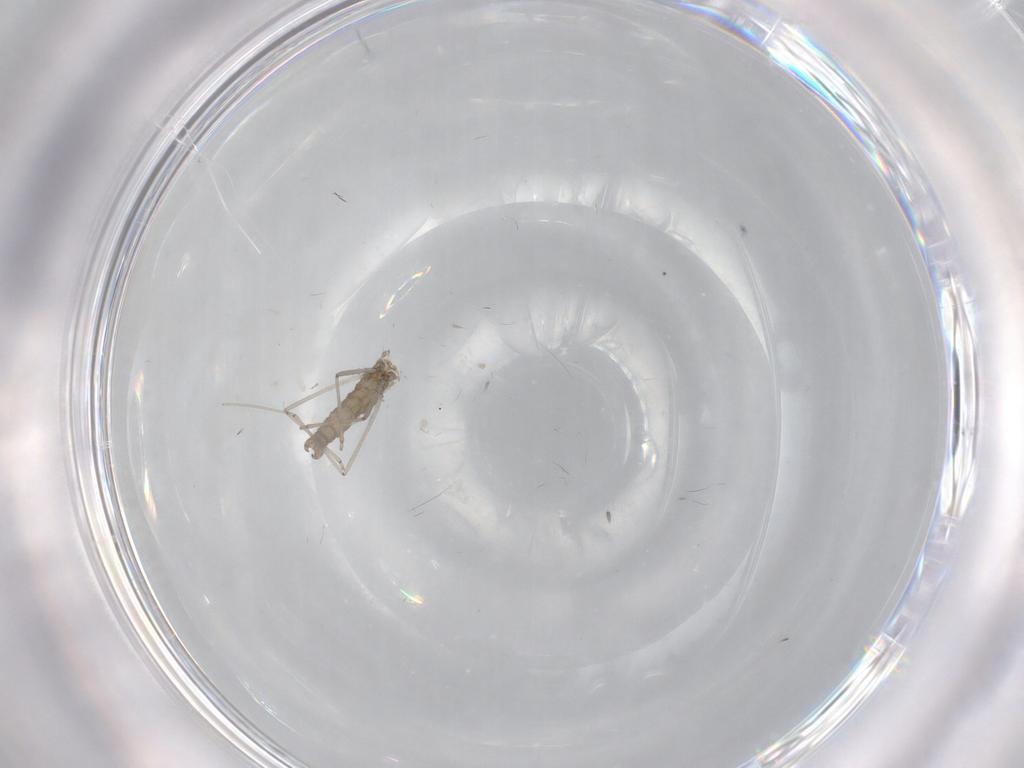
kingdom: Animalia
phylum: Arthropoda
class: Insecta
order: Diptera
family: Cecidomyiidae
